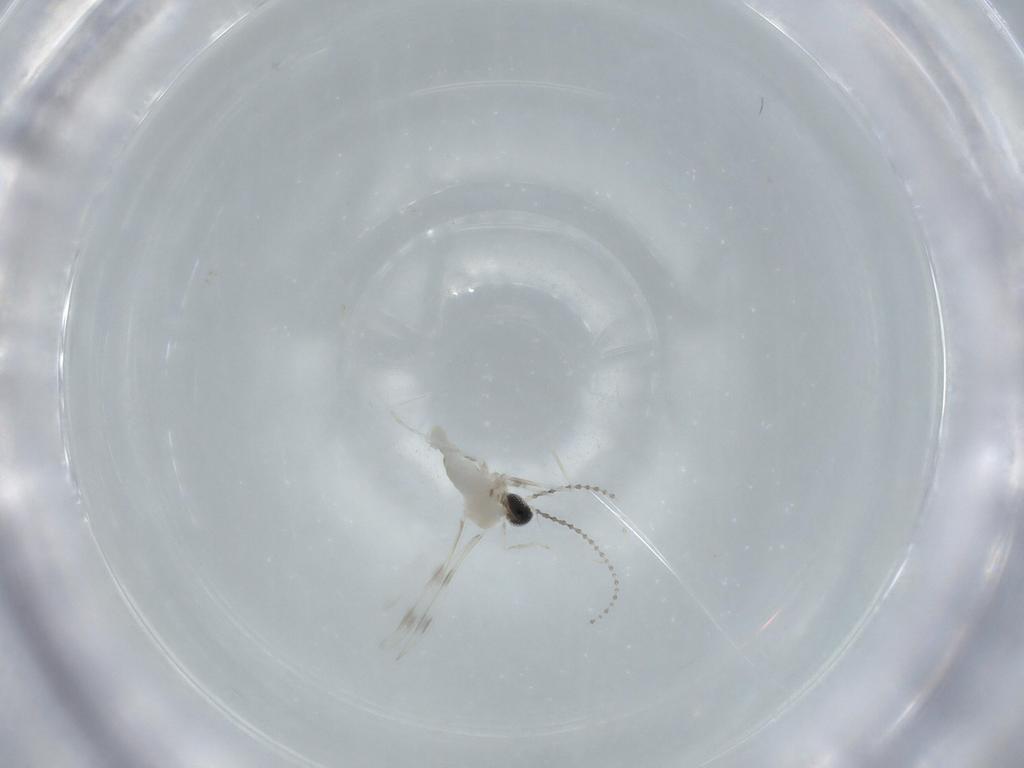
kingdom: Animalia
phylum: Arthropoda
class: Insecta
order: Diptera
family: Cecidomyiidae
